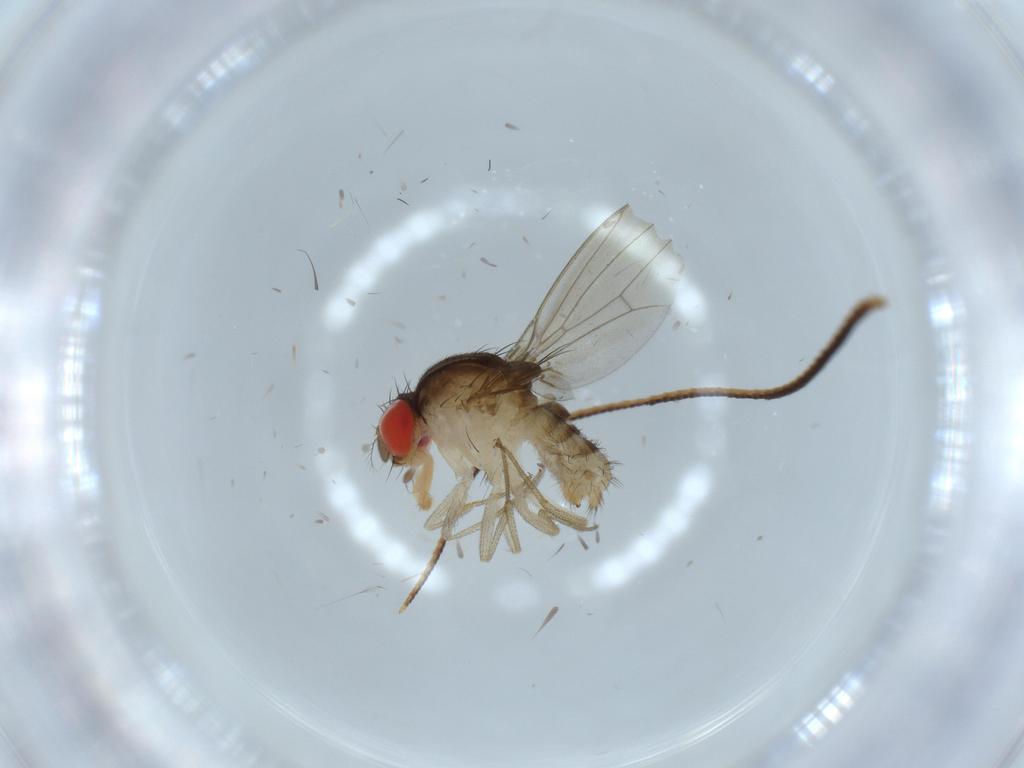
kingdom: Animalia
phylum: Arthropoda
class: Insecta
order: Diptera
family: Drosophilidae
